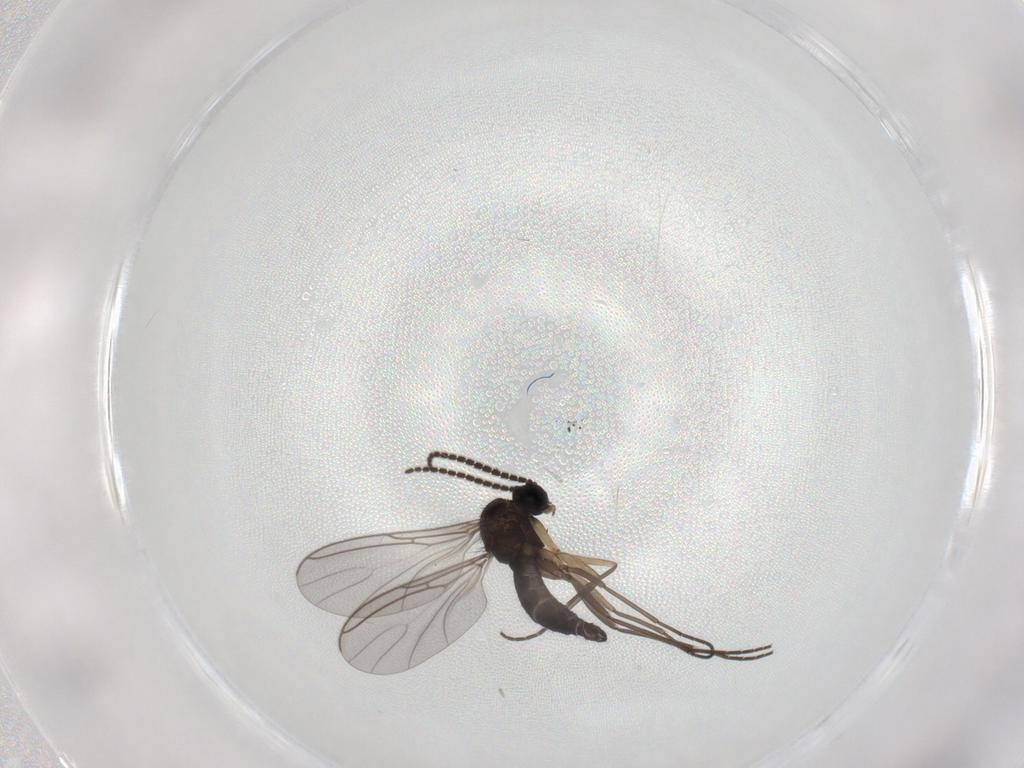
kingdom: Animalia
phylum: Arthropoda
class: Insecta
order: Diptera
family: Sciaridae
